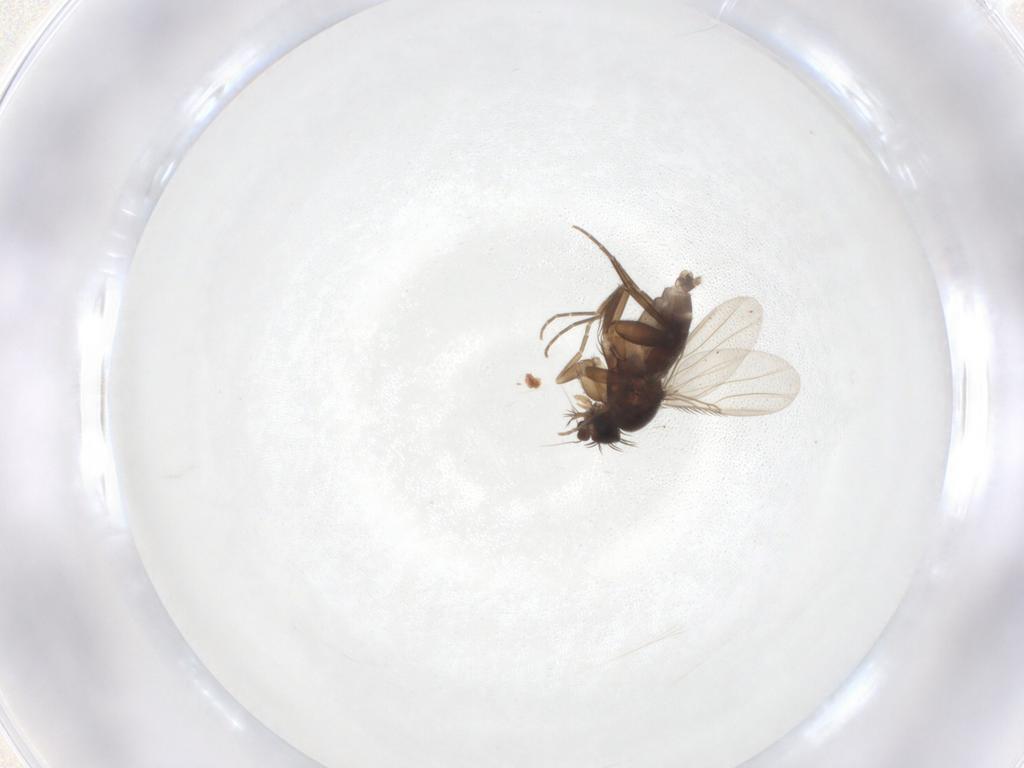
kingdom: Animalia
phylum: Arthropoda
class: Insecta
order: Diptera
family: Phoridae
